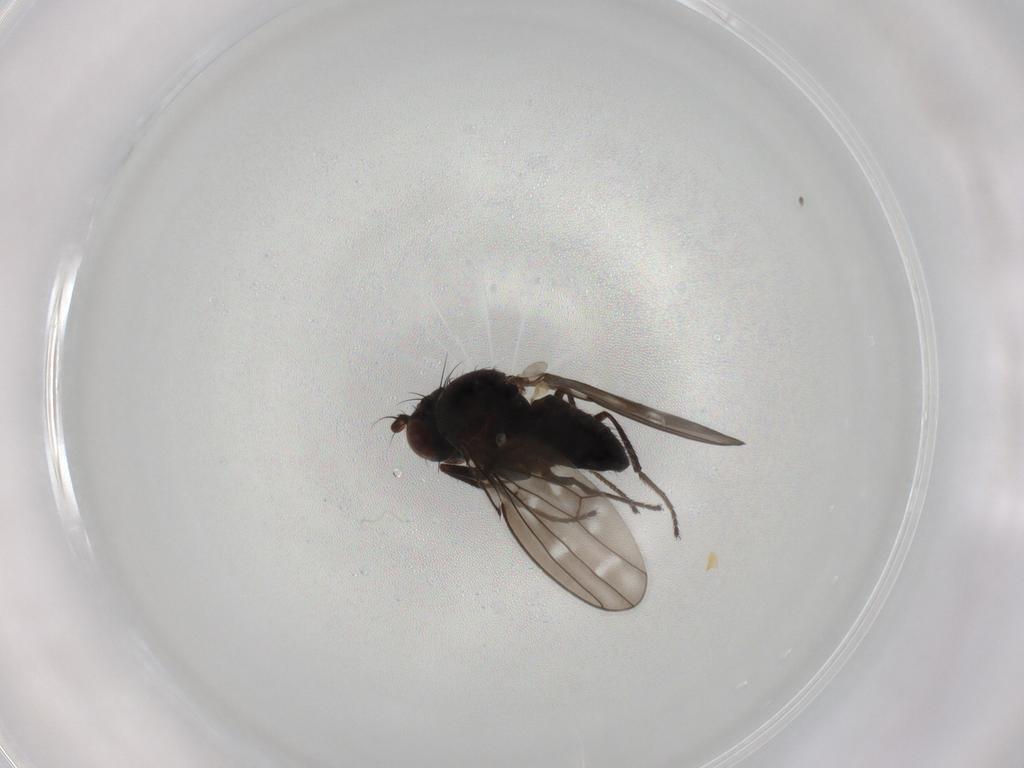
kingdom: Animalia
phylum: Arthropoda
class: Insecta
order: Diptera
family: Ephydridae
